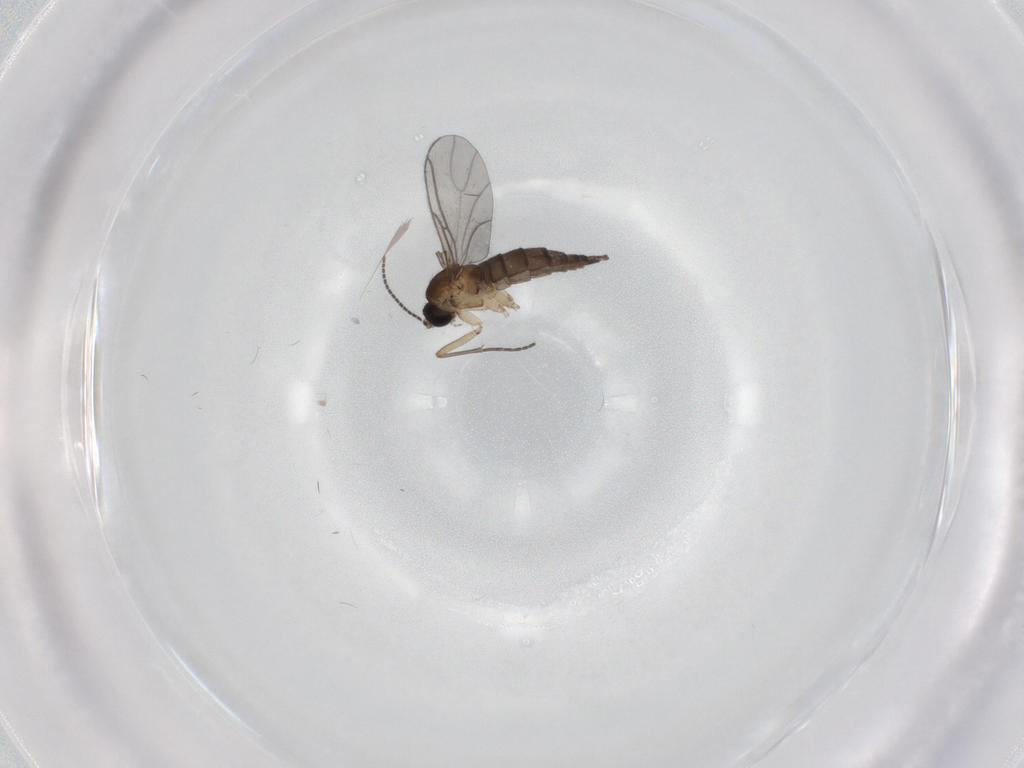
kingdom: Animalia
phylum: Arthropoda
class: Insecta
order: Diptera
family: Sciaridae
